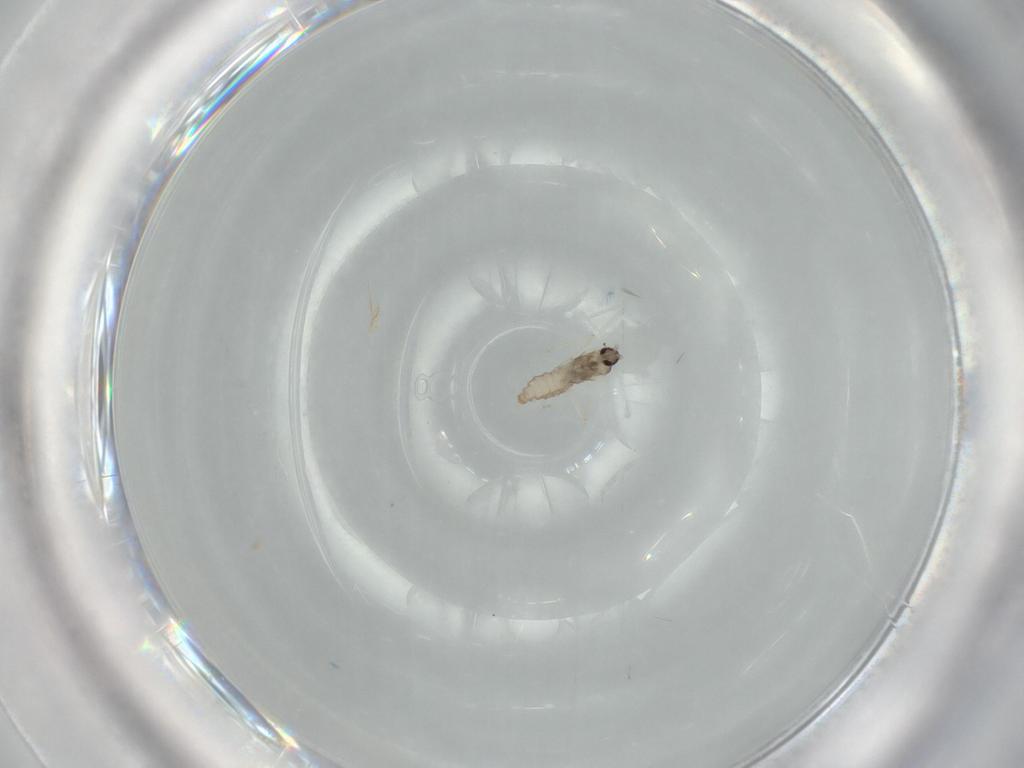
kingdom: Animalia
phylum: Arthropoda
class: Insecta
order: Diptera
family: Cecidomyiidae
